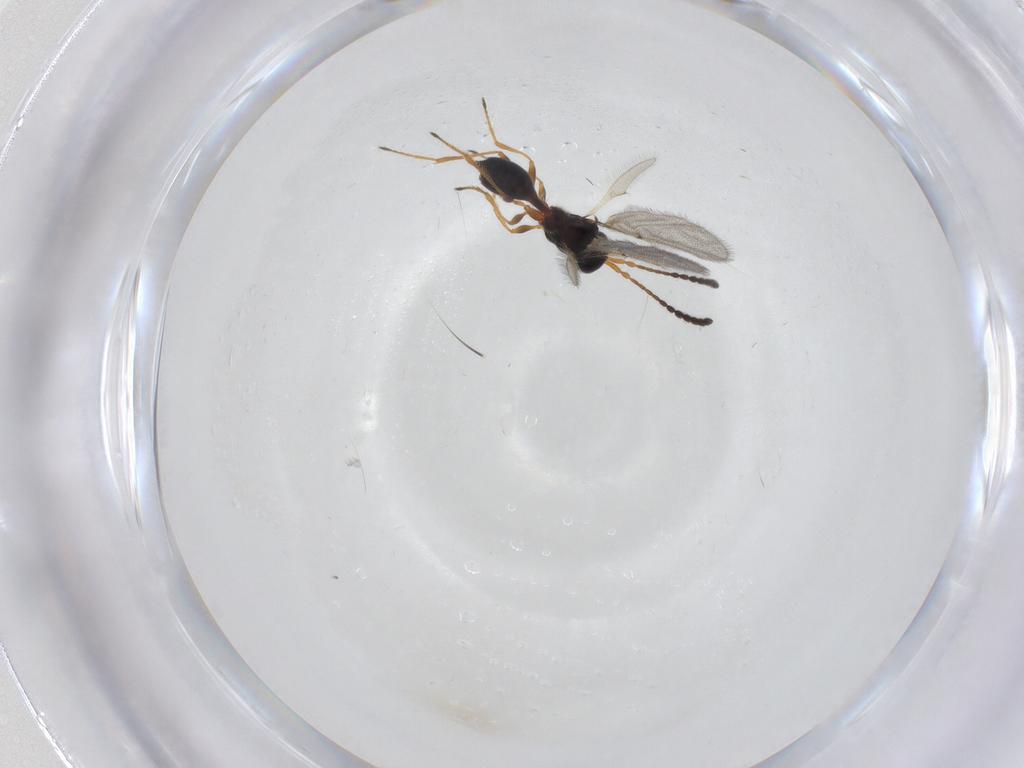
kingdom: Animalia
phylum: Arthropoda
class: Insecta
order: Hymenoptera
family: Diapriidae
